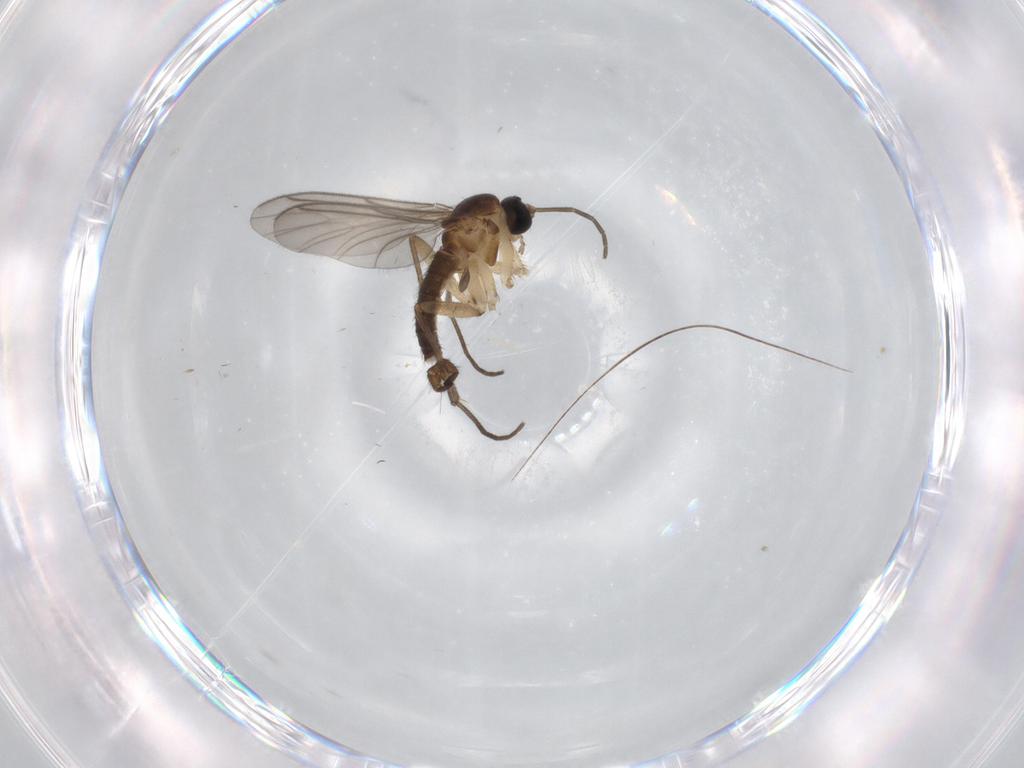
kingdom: Animalia
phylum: Arthropoda
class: Insecta
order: Diptera
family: Sciaridae
